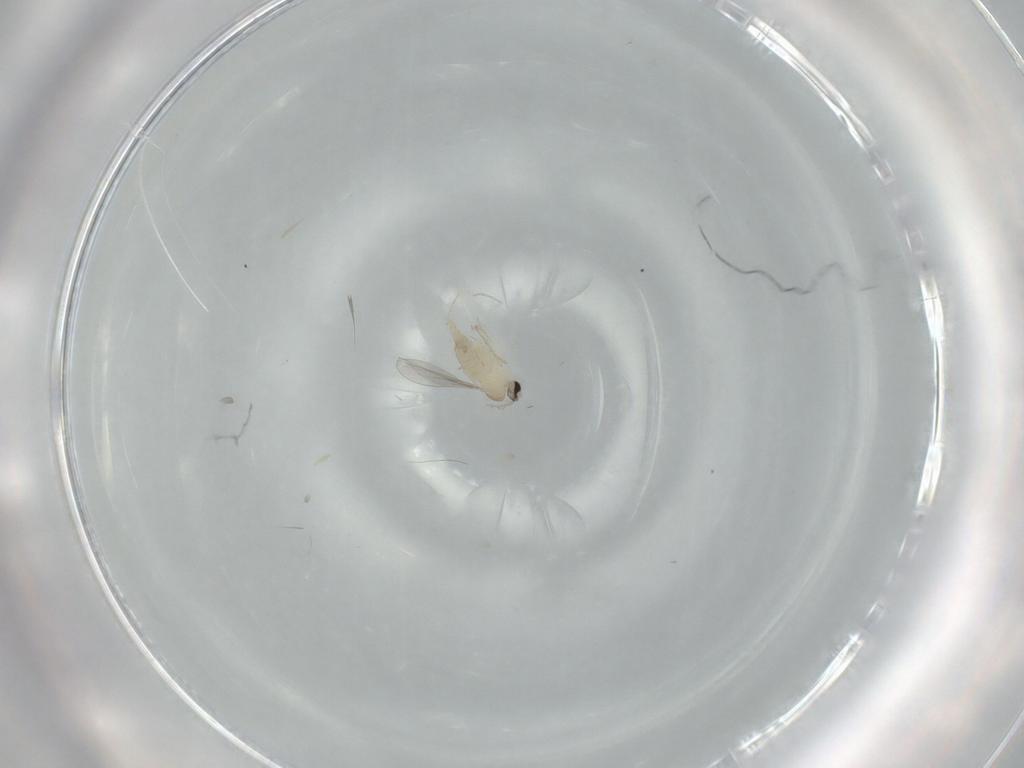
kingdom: Animalia
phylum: Arthropoda
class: Insecta
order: Diptera
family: Cecidomyiidae
